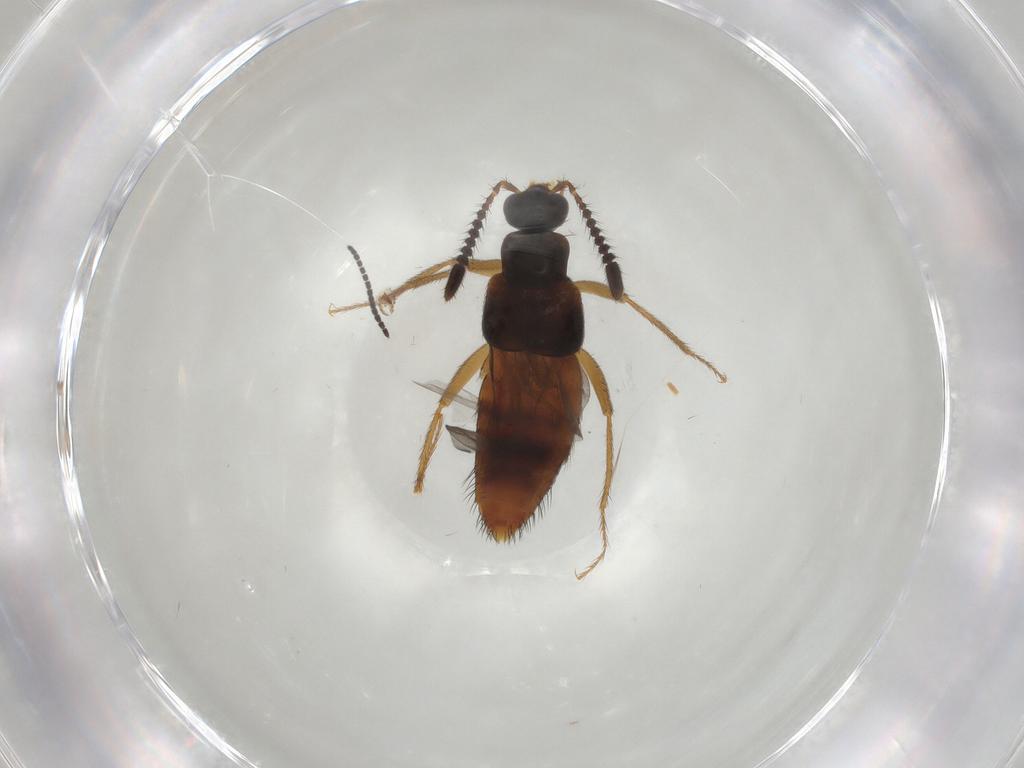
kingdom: Animalia
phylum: Arthropoda
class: Insecta
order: Coleoptera
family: Staphylinidae
